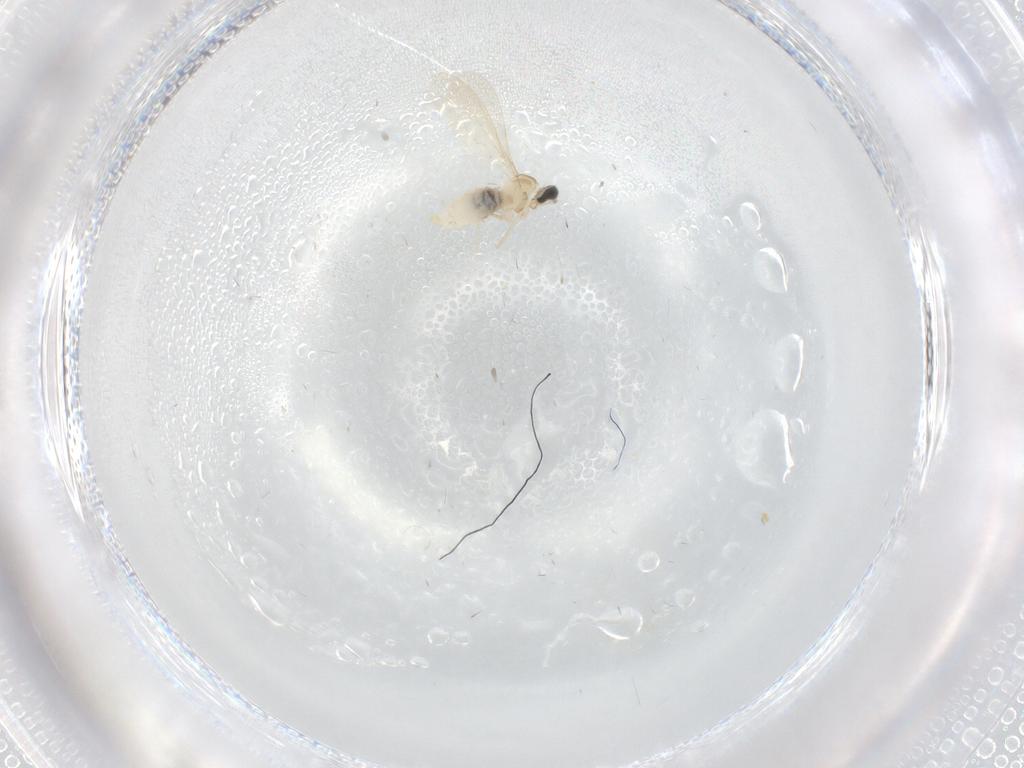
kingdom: Animalia
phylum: Arthropoda
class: Insecta
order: Diptera
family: Cecidomyiidae
